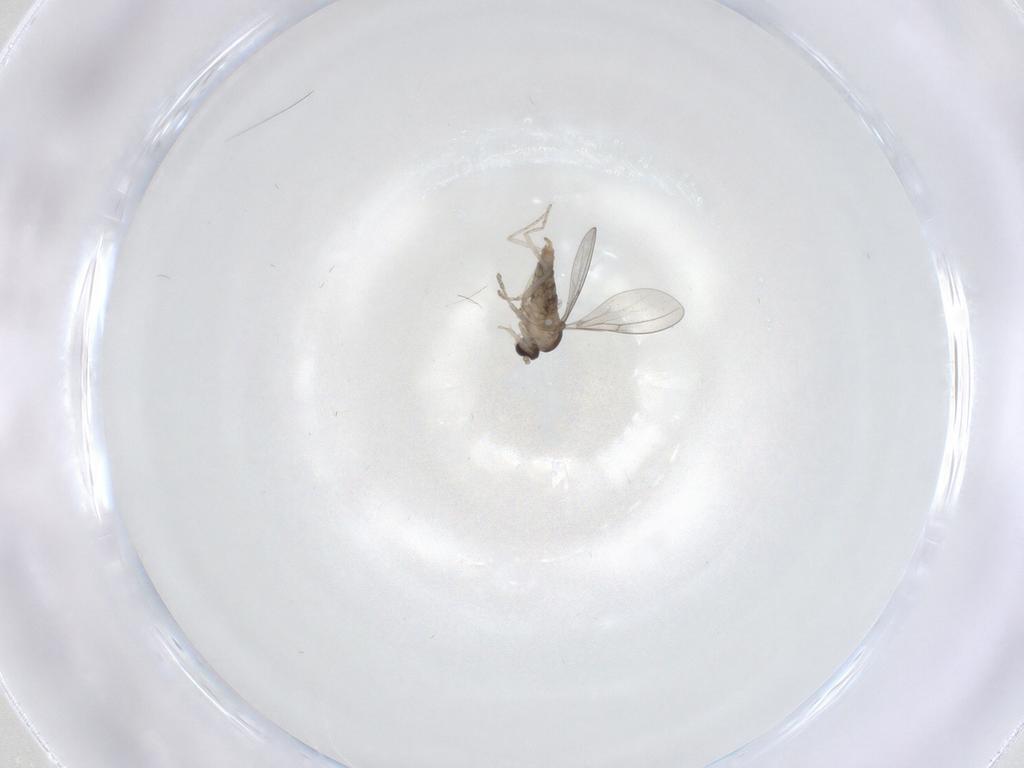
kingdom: Animalia
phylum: Arthropoda
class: Insecta
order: Diptera
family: Cecidomyiidae
